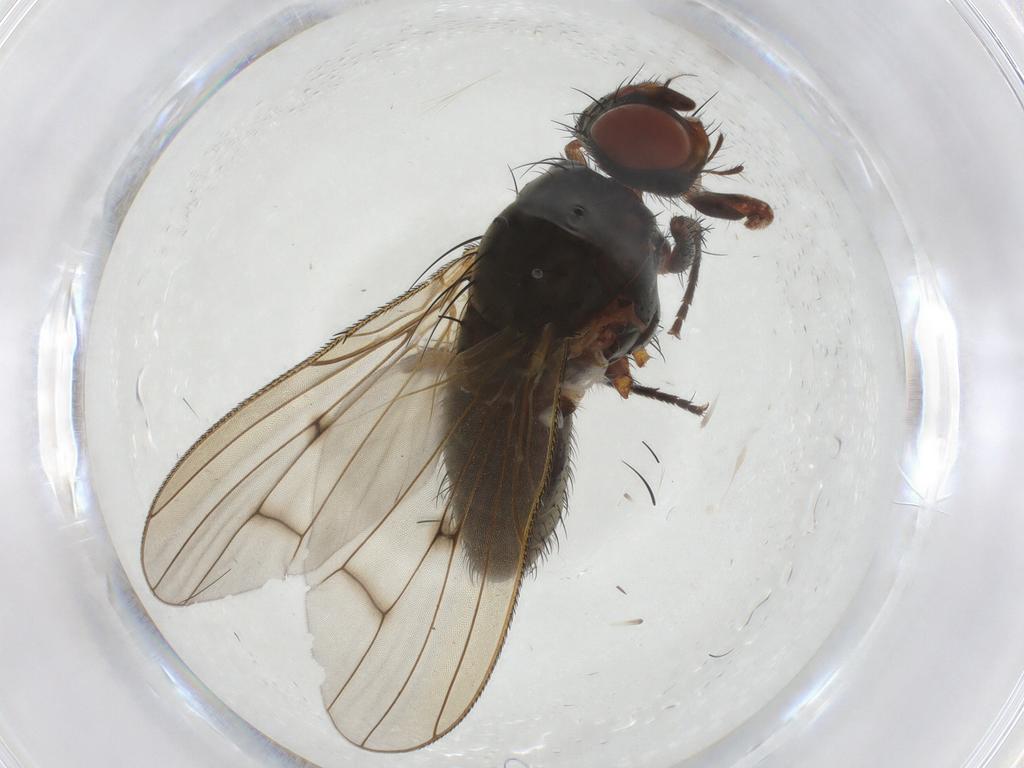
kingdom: Animalia
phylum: Arthropoda
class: Insecta
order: Diptera
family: Anthomyiidae
